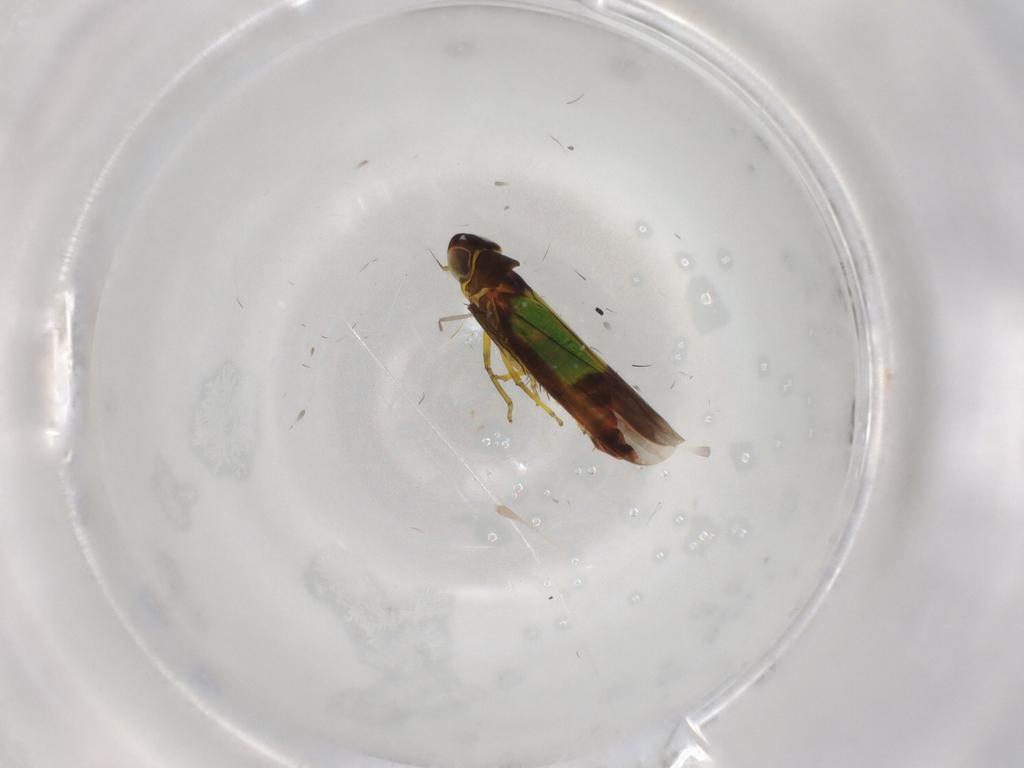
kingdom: Animalia
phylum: Arthropoda
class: Insecta
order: Hemiptera
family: Cicadellidae
